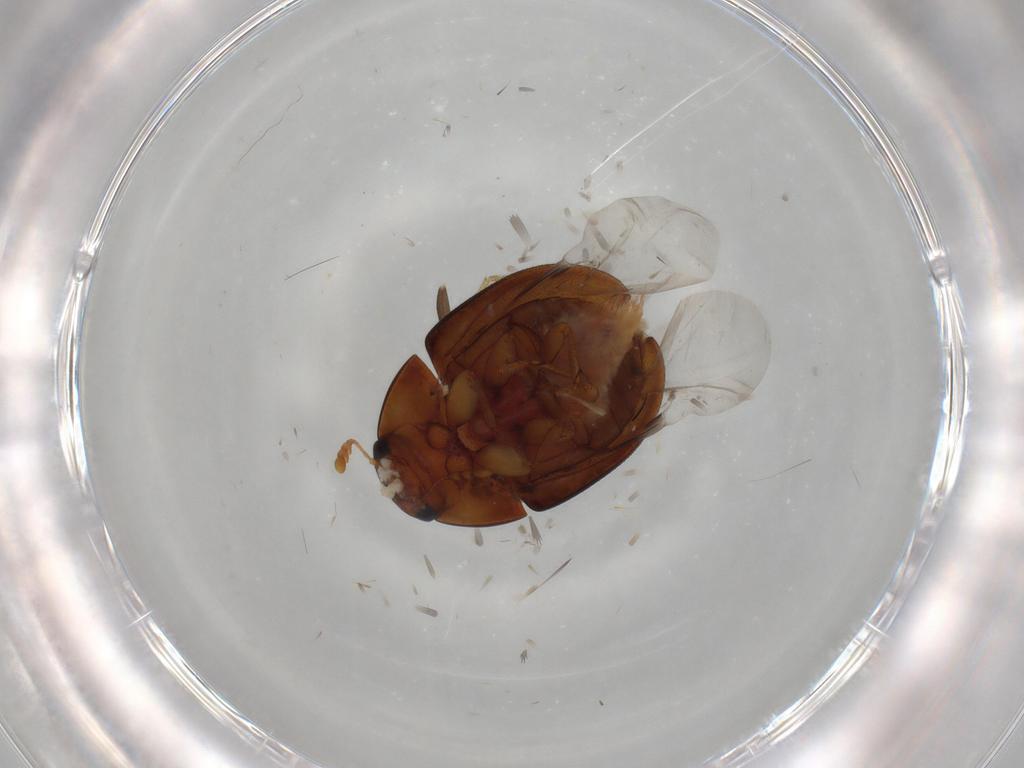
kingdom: Animalia
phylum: Arthropoda
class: Insecta
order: Coleoptera
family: Phalacridae
